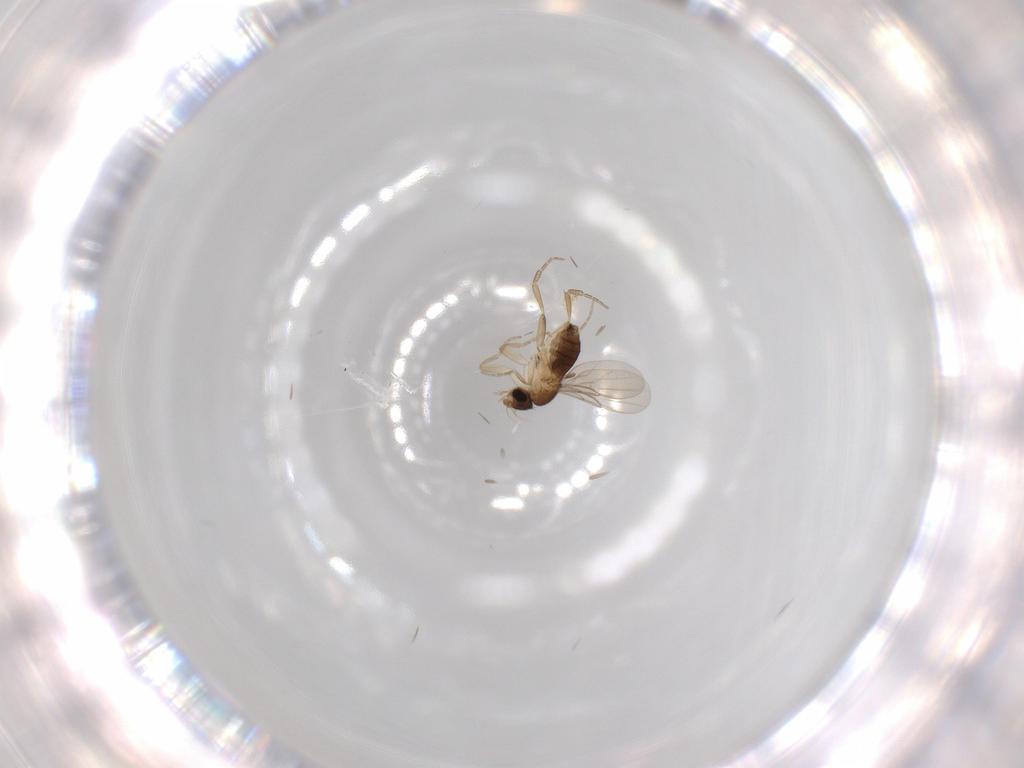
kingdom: Animalia
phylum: Arthropoda
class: Insecta
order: Diptera
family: Phoridae
